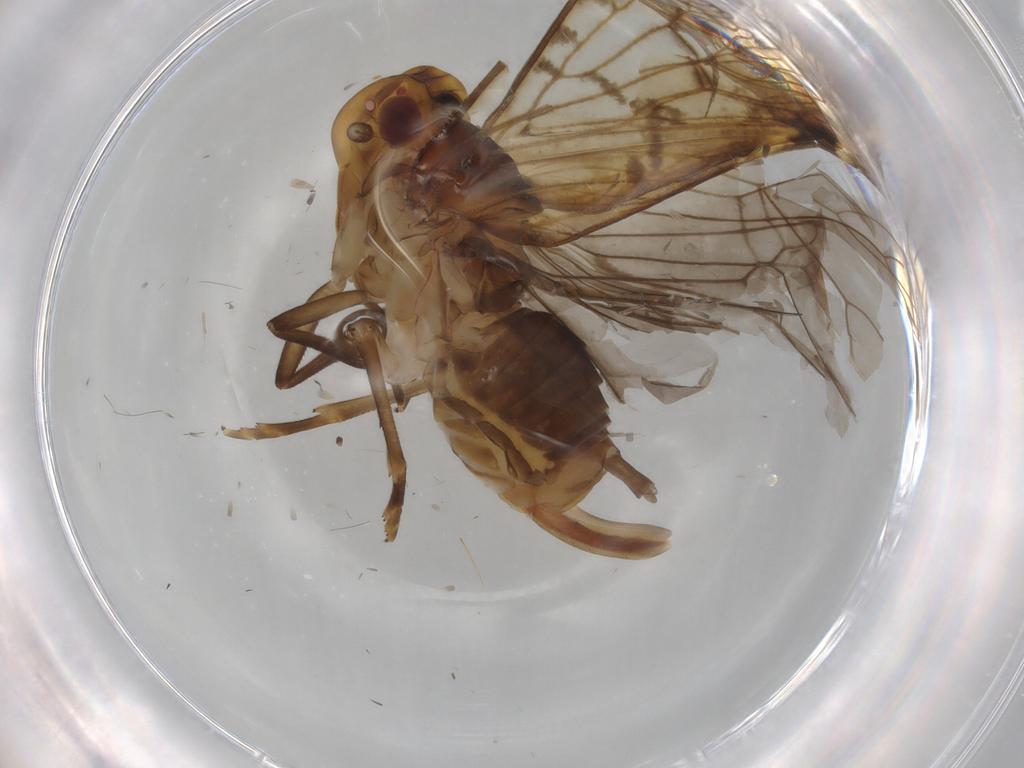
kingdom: Animalia
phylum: Arthropoda
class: Insecta
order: Hemiptera
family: Cixiidae
